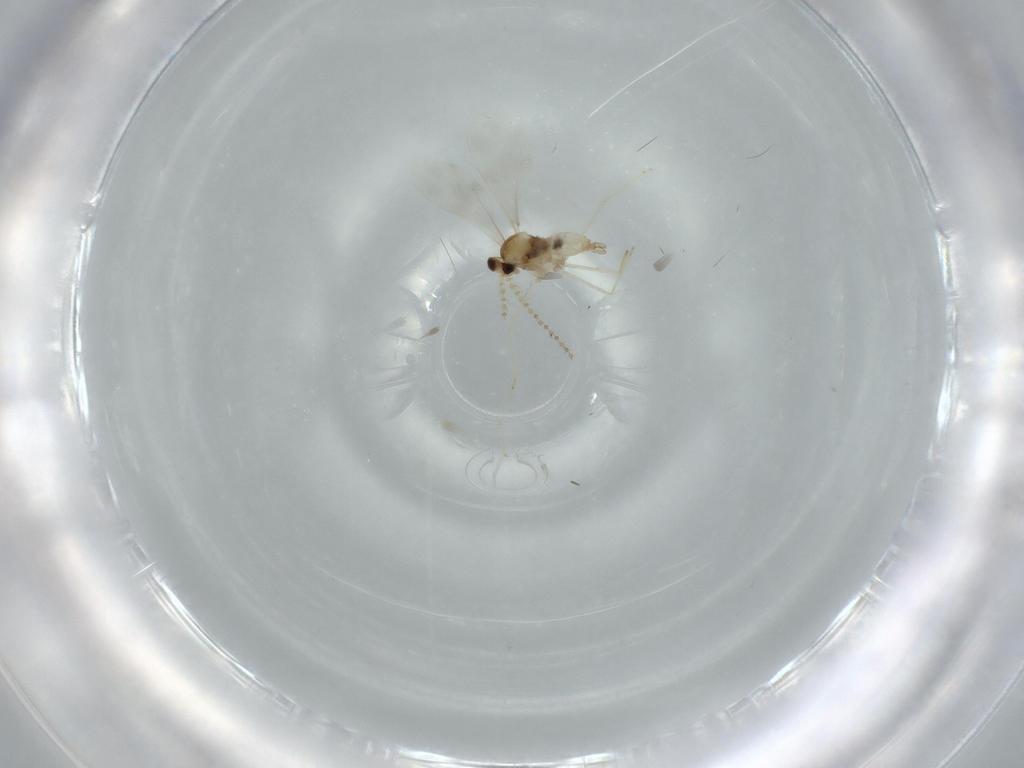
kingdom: Animalia
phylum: Arthropoda
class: Insecta
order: Diptera
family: Cecidomyiidae
